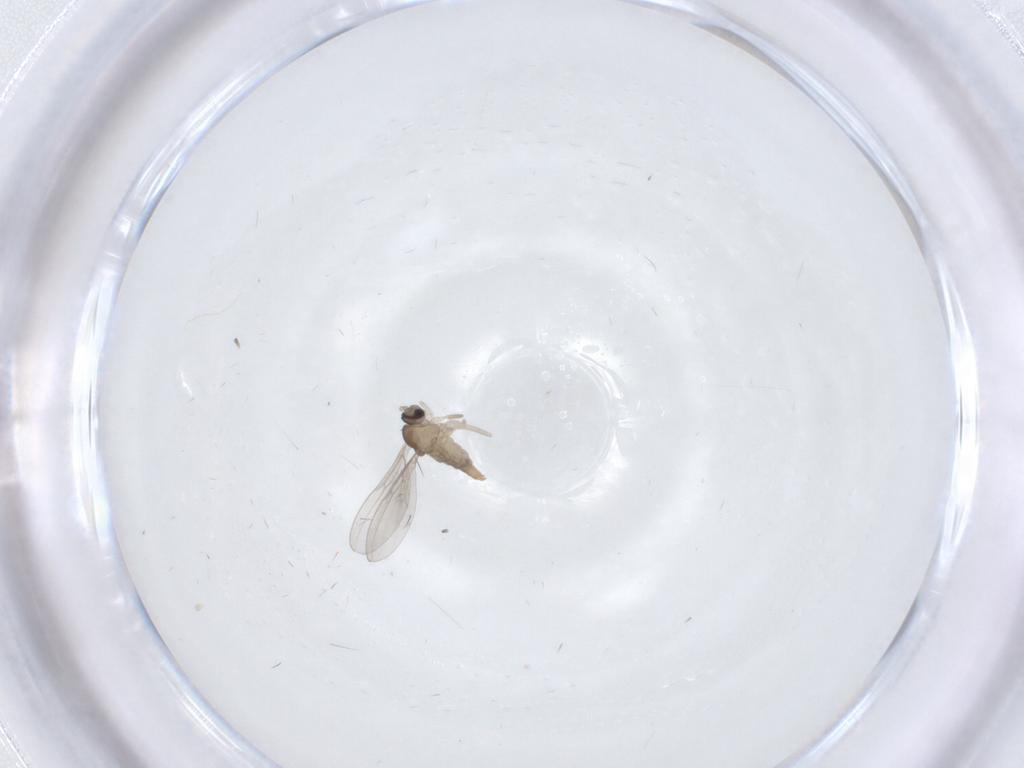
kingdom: Animalia
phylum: Arthropoda
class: Insecta
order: Diptera
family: Cecidomyiidae
